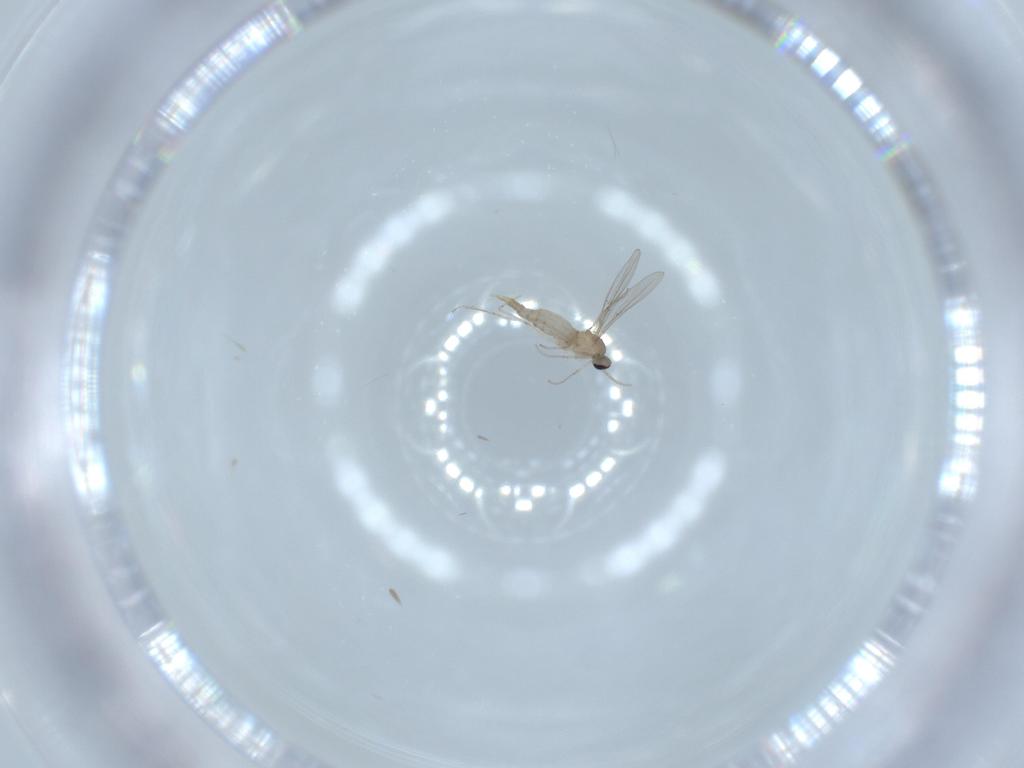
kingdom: Animalia
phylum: Arthropoda
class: Insecta
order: Diptera
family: Cecidomyiidae
